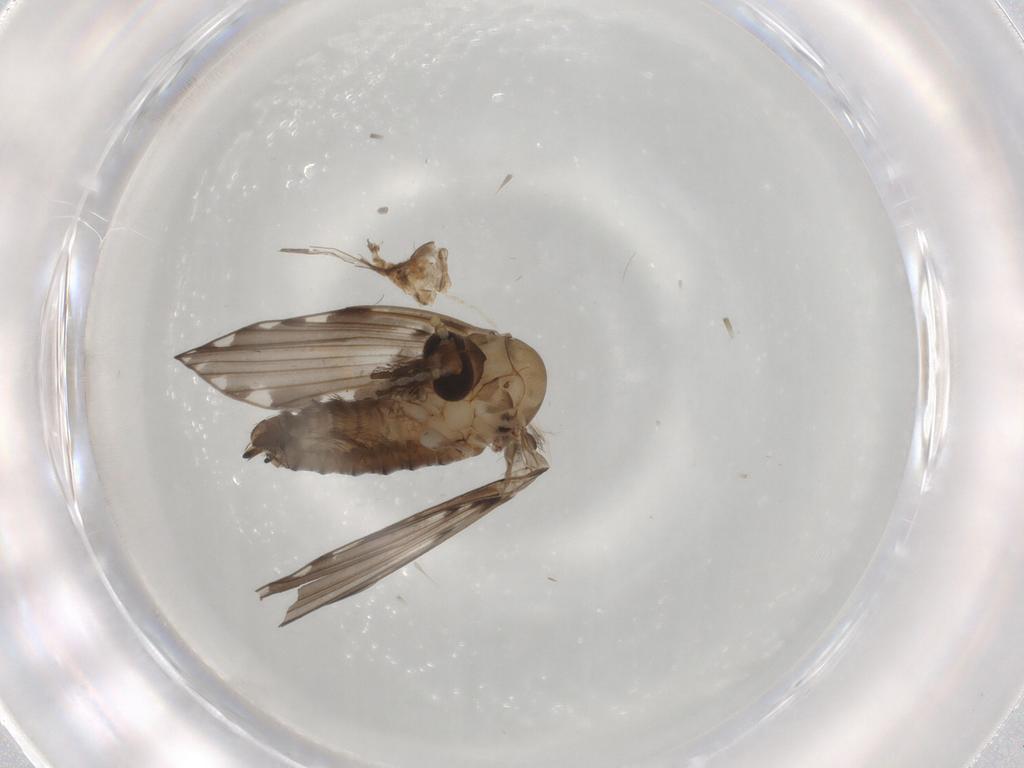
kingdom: Animalia
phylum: Arthropoda
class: Insecta
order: Diptera
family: Psychodidae
